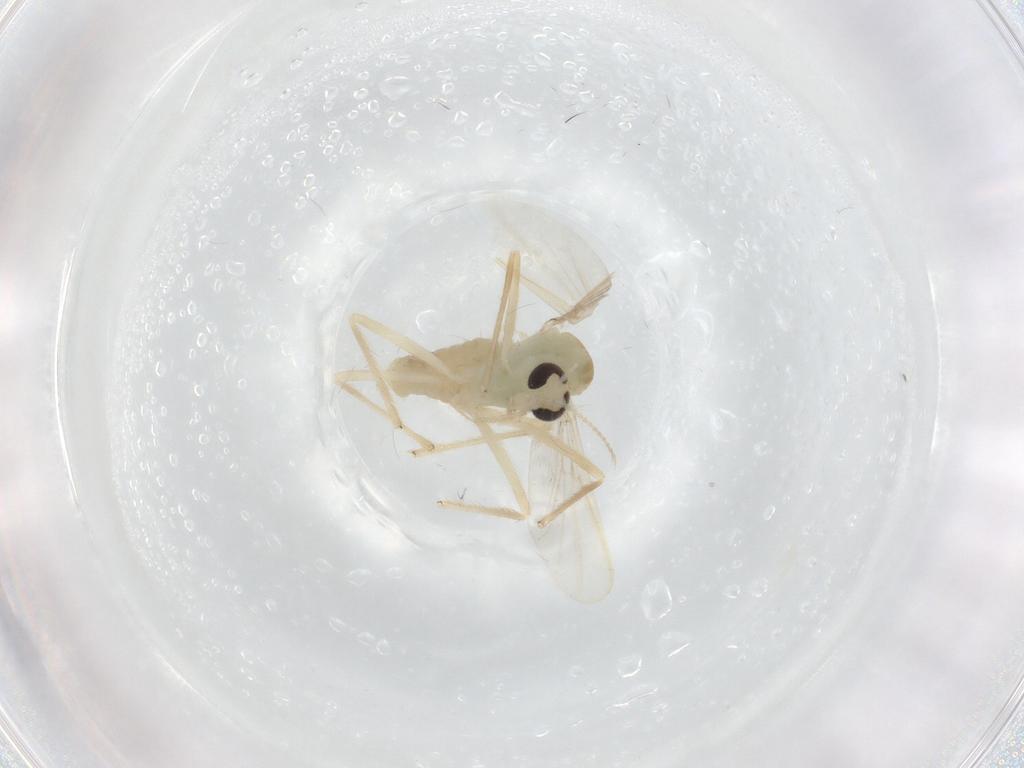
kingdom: Animalia
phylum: Arthropoda
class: Insecta
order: Diptera
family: Chironomidae
